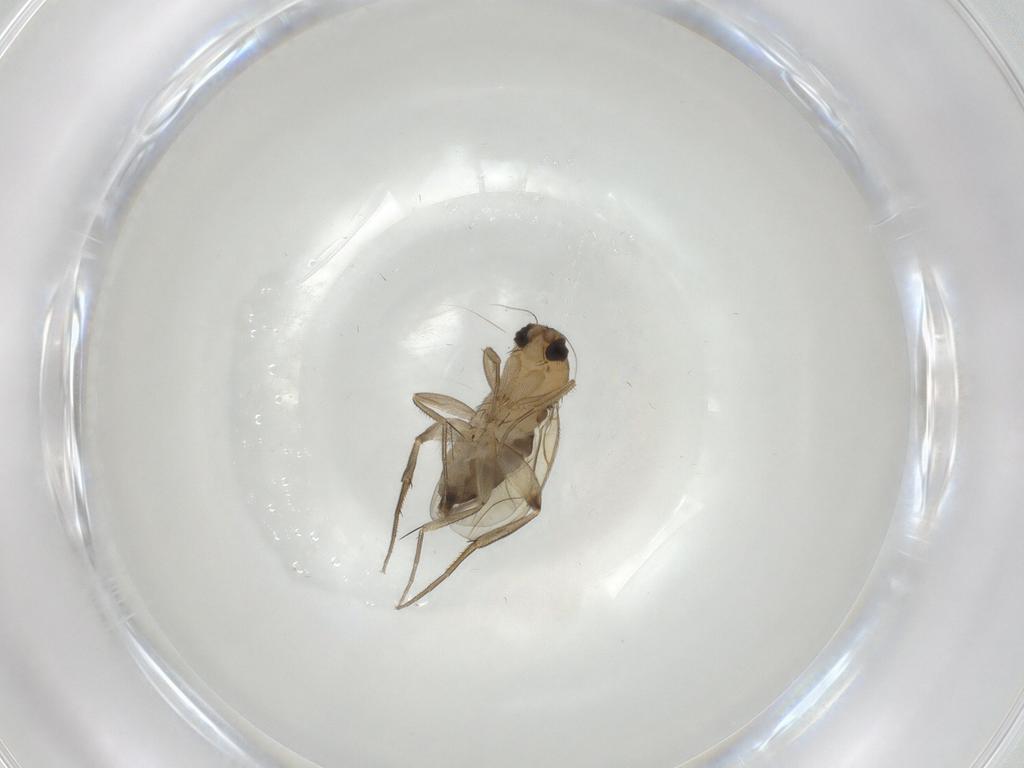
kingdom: Animalia
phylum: Arthropoda
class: Insecta
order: Diptera
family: Phoridae
